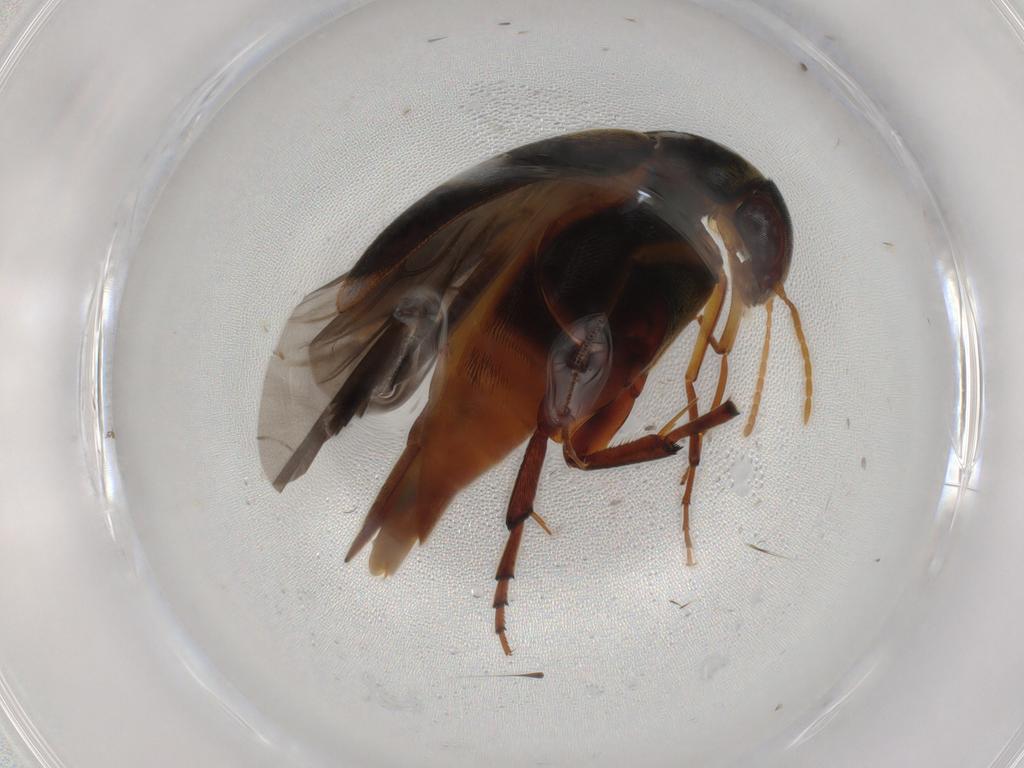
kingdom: Animalia
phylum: Arthropoda
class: Insecta
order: Coleoptera
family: Mordellidae
